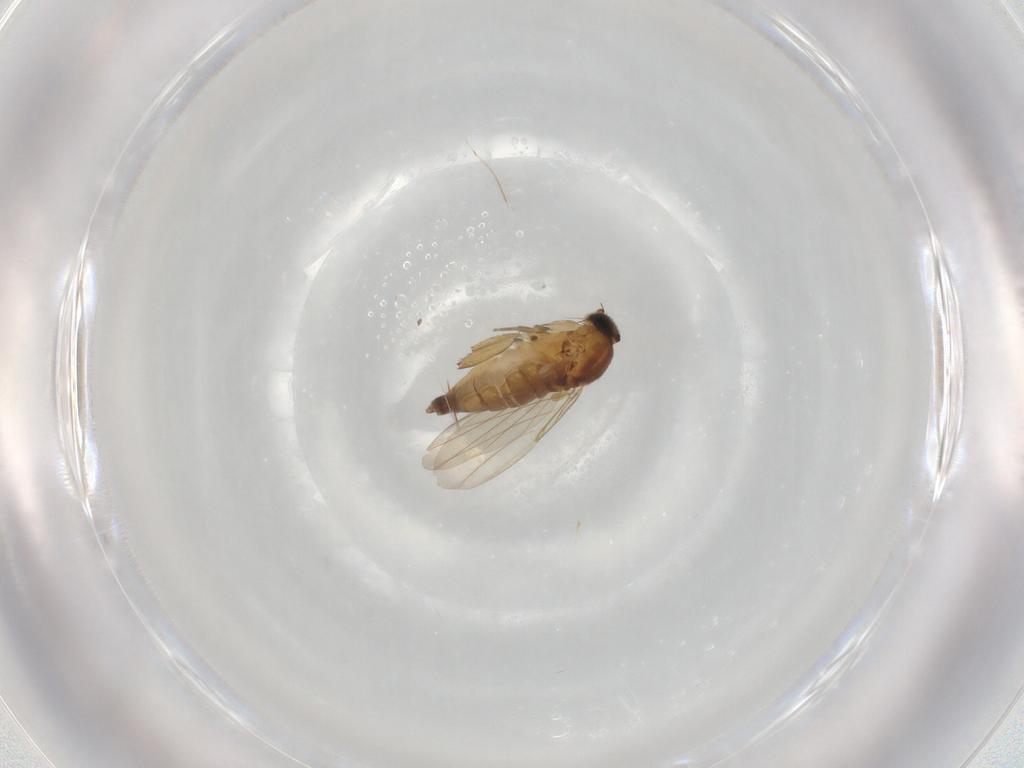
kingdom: Animalia
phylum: Arthropoda
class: Insecta
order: Diptera
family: Phoridae
